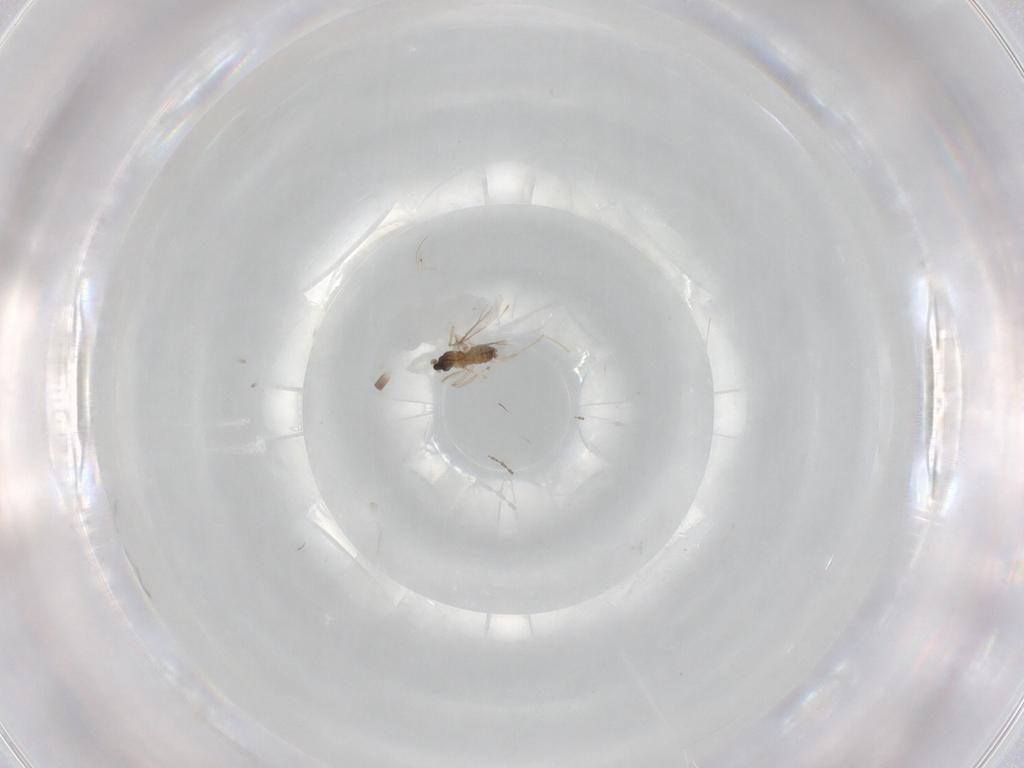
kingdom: Animalia
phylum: Arthropoda
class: Insecta
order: Diptera
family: Cecidomyiidae
